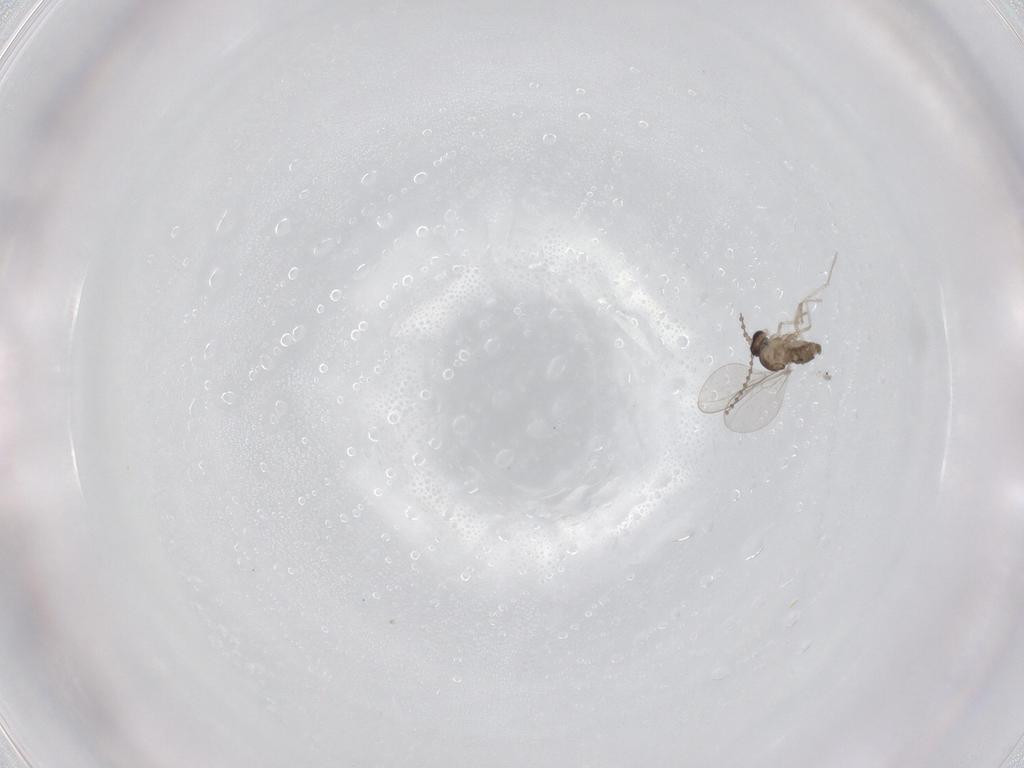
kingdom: Animalia
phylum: Arthropoda
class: Insecta
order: Diptera
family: Cecidomyiidae
